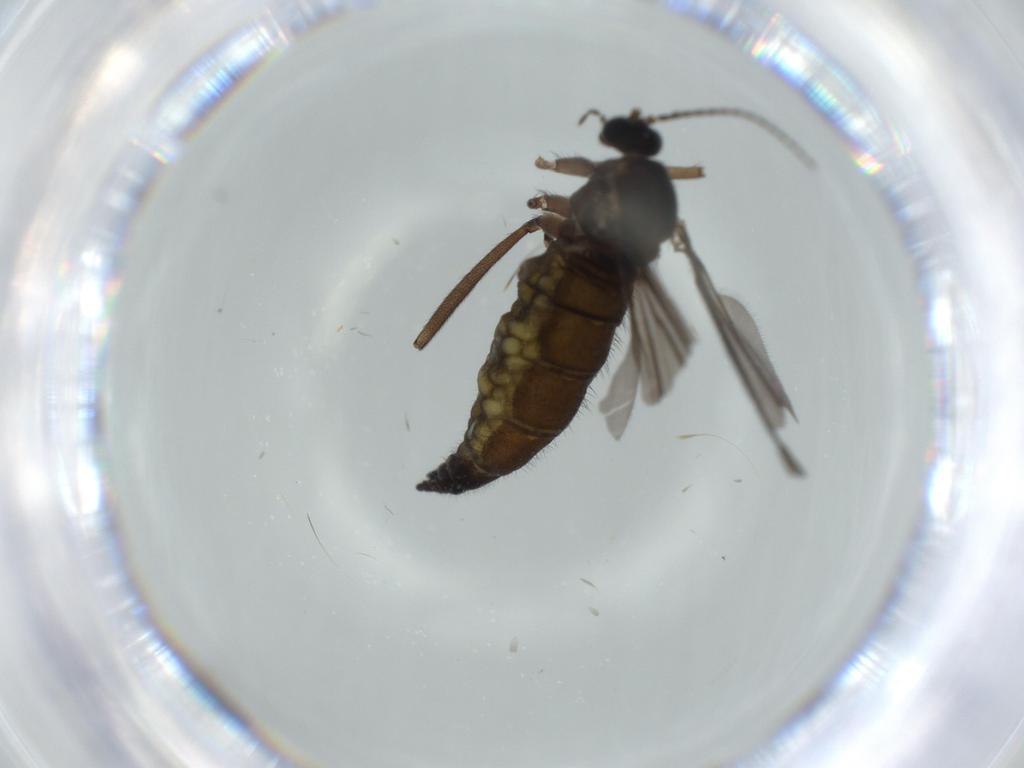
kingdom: Animalia
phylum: Arthropoda
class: Insecta
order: Diptera
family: Sciaridae
